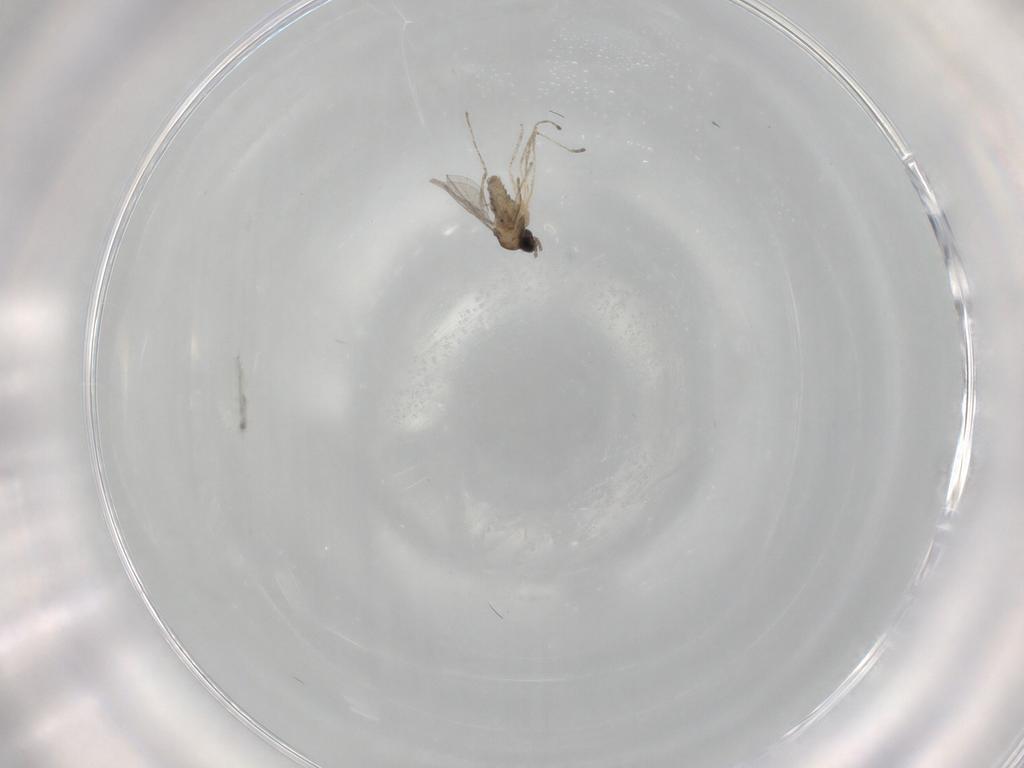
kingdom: Animalia
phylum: Arthropoda
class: Insecta
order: Diptera
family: Cecidomyiidae
